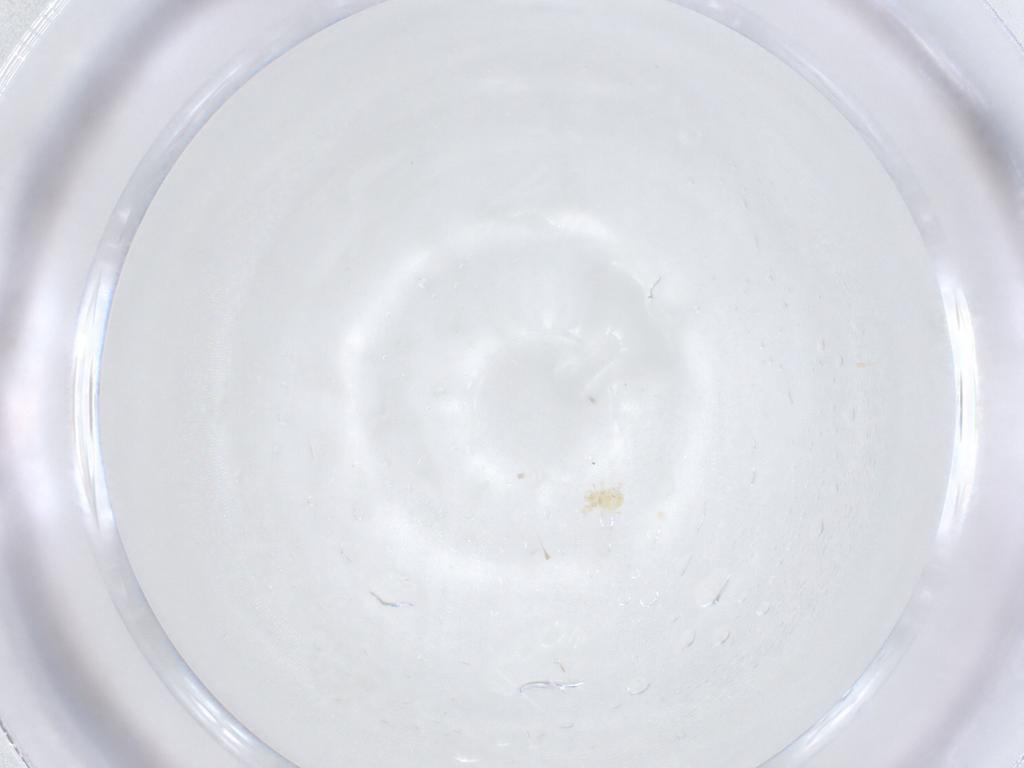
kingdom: Animalia
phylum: Arthropoda
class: Arachnida
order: Mesostigmata
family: Phytoseiidae
